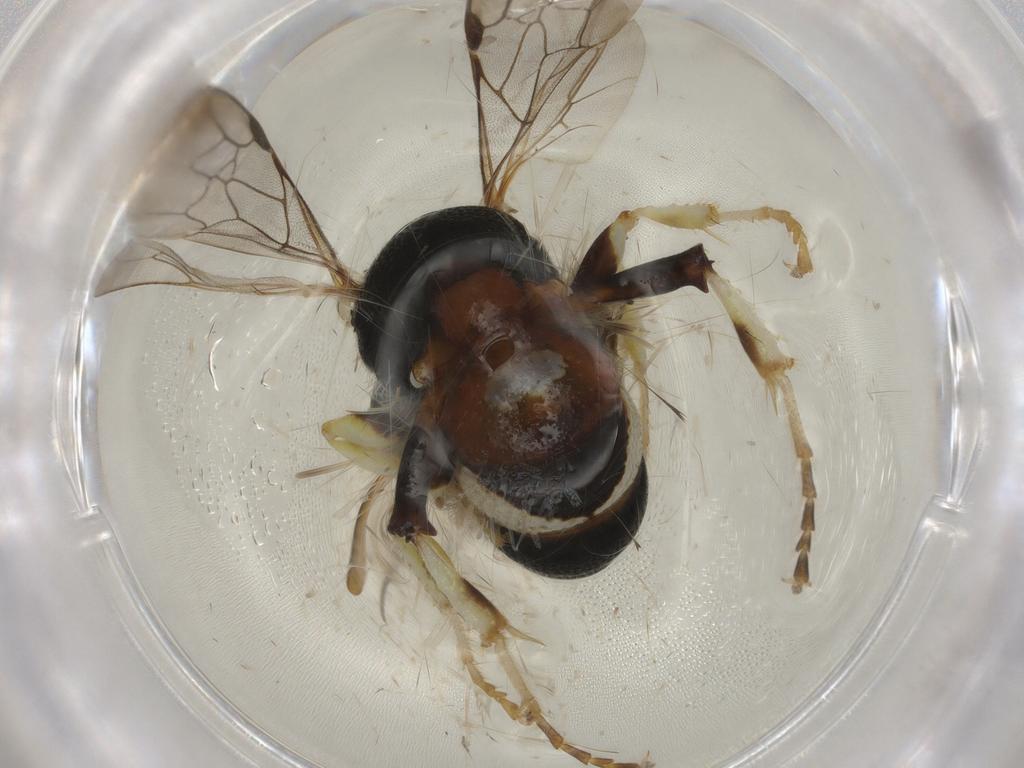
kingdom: Animalia
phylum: Arthropoda
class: Insecta
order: Hymenoptera
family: Crabronidae
